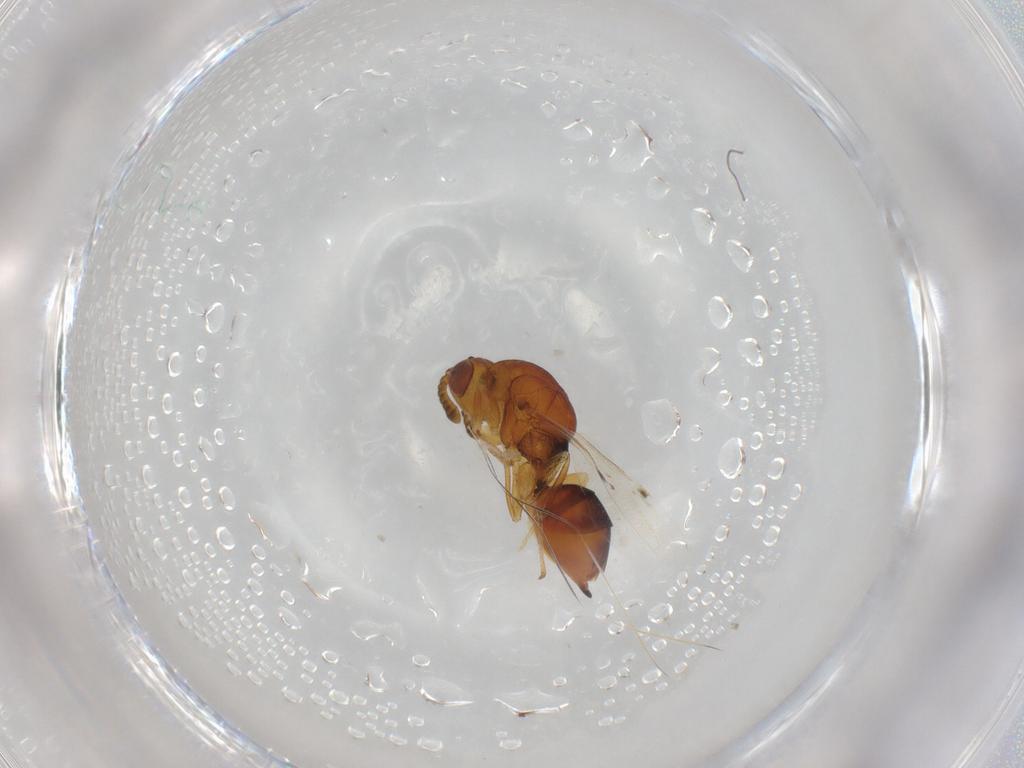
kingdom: Animalia
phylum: Arthropoda
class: Insecta
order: Hymenoptera
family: Eurytomidae
